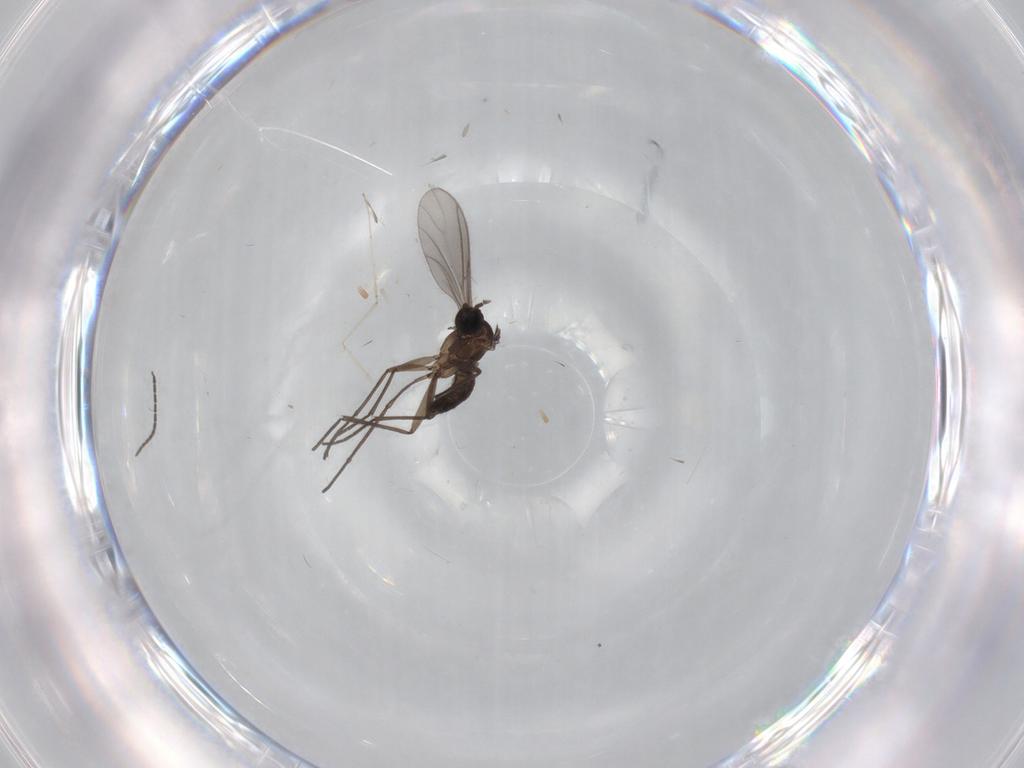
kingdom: Animalia
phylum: Arthropoda
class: Insecta
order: Diptera
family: Sciaridae
